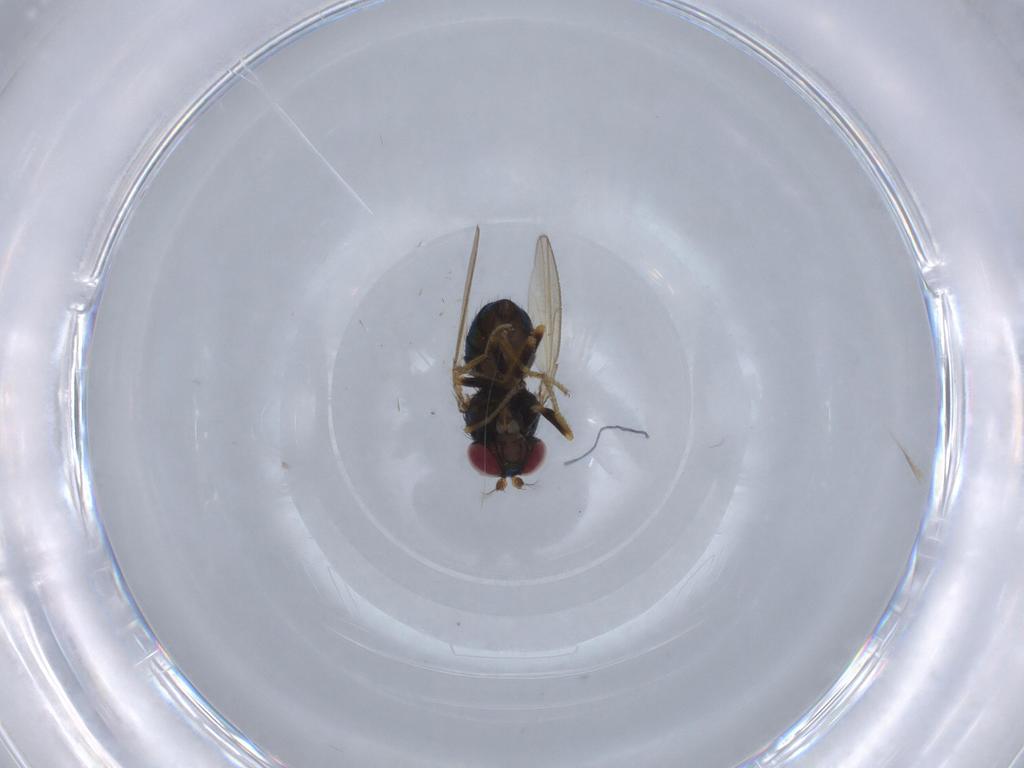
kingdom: Animalia
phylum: Arthropoda
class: Insecta
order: Diptera
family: Ephydridae
